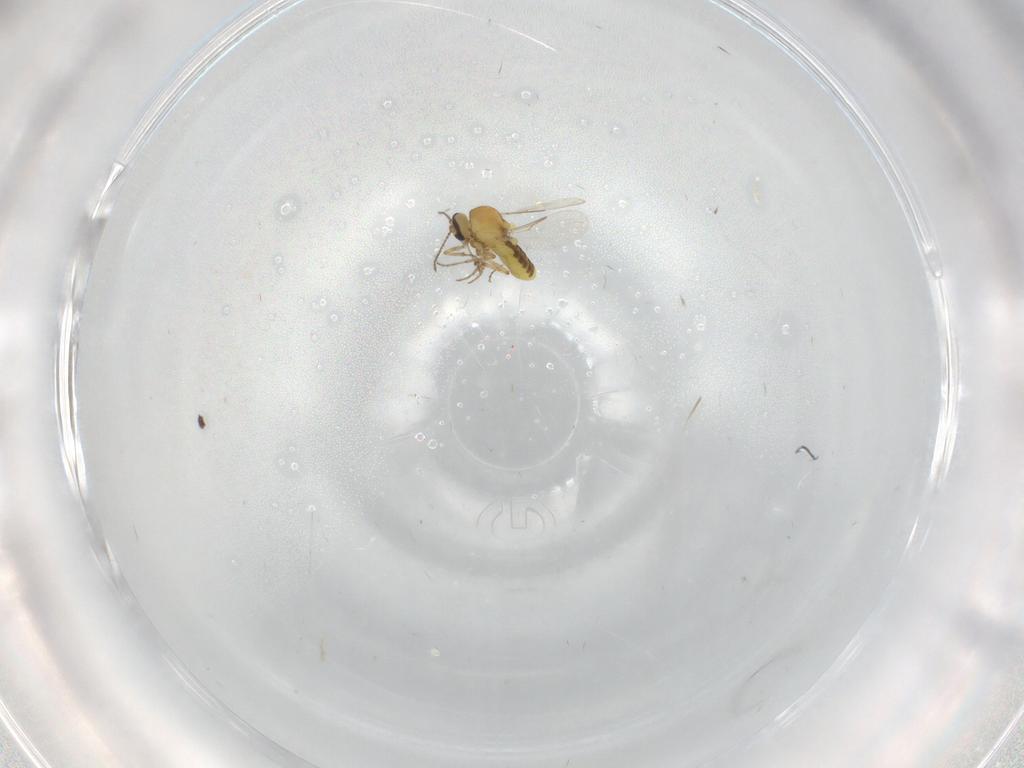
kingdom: Animalia
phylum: Arthropoda
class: Insecta
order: Diptera
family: Ceratopogonidae
